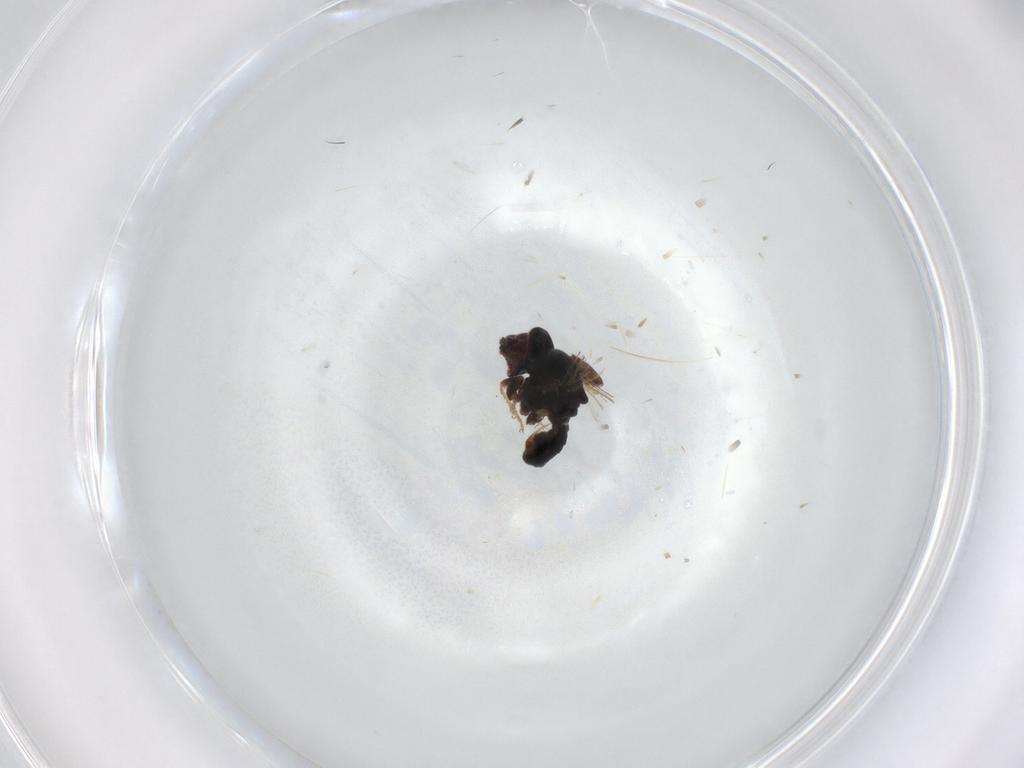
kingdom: Animalia
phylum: Arthropoda
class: Insecta
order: Diptera
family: Pipunculidae
